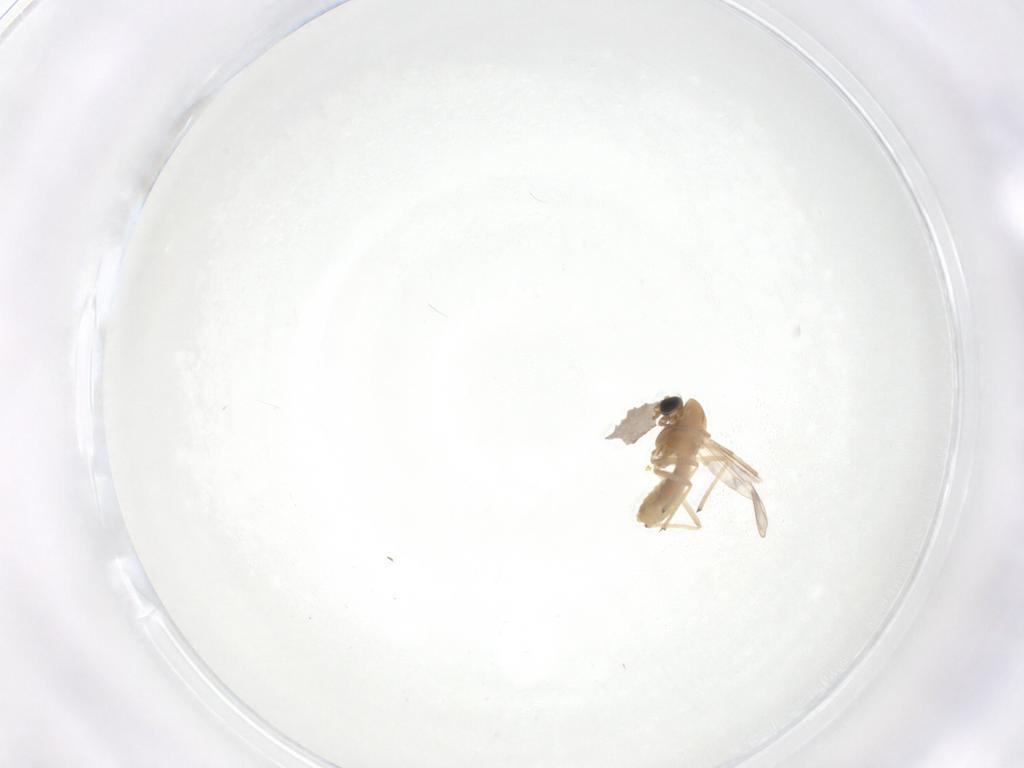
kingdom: Animalia
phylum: Arthropoda
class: Insecta
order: Diptera
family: Chironomidae
